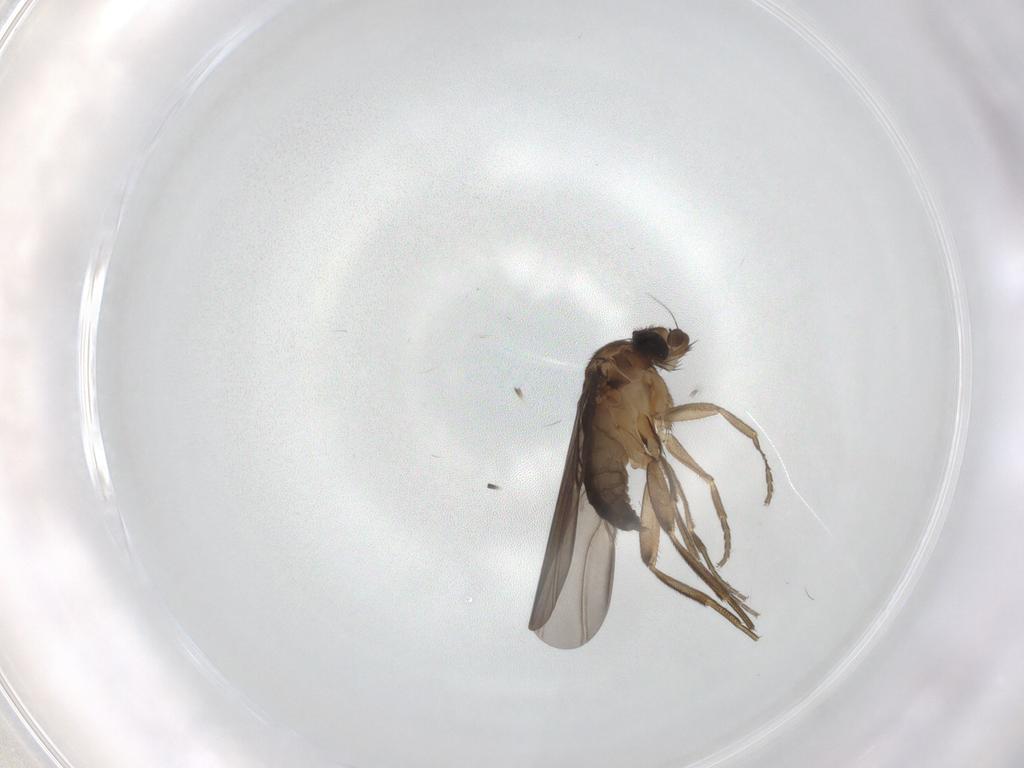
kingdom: Animalia
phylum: Arthropoda
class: Insecta
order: Diptera
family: Phoridae
